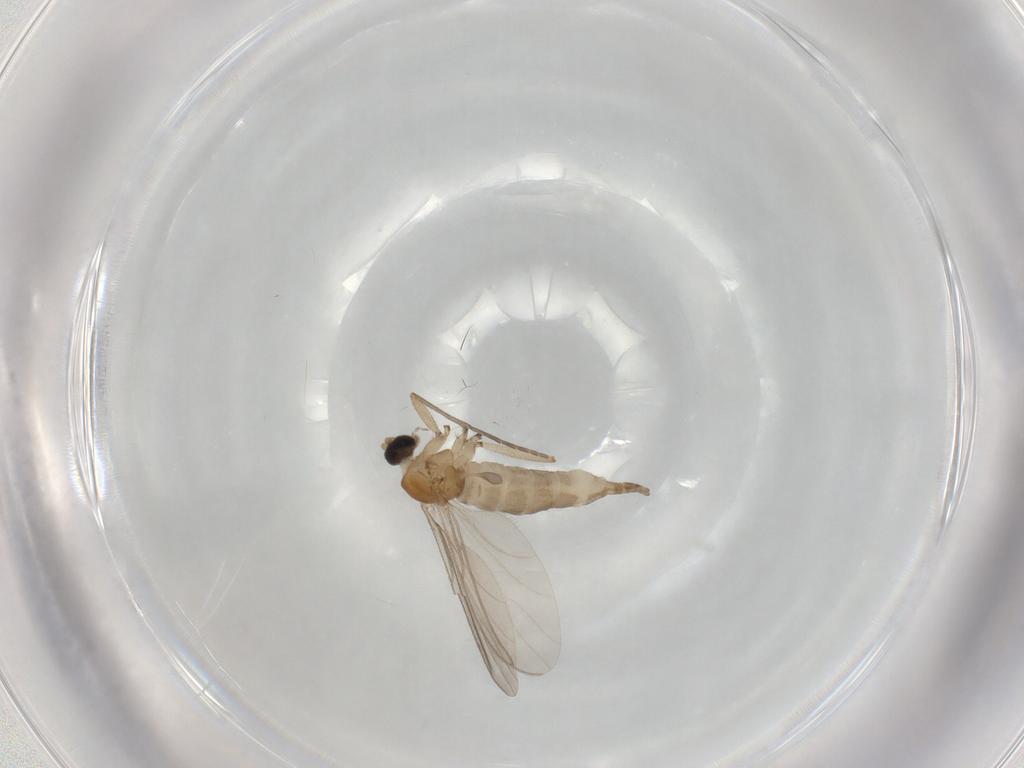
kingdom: Animalia
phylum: Arthropoda
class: Insecta
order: Diptera
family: Sciaridae
